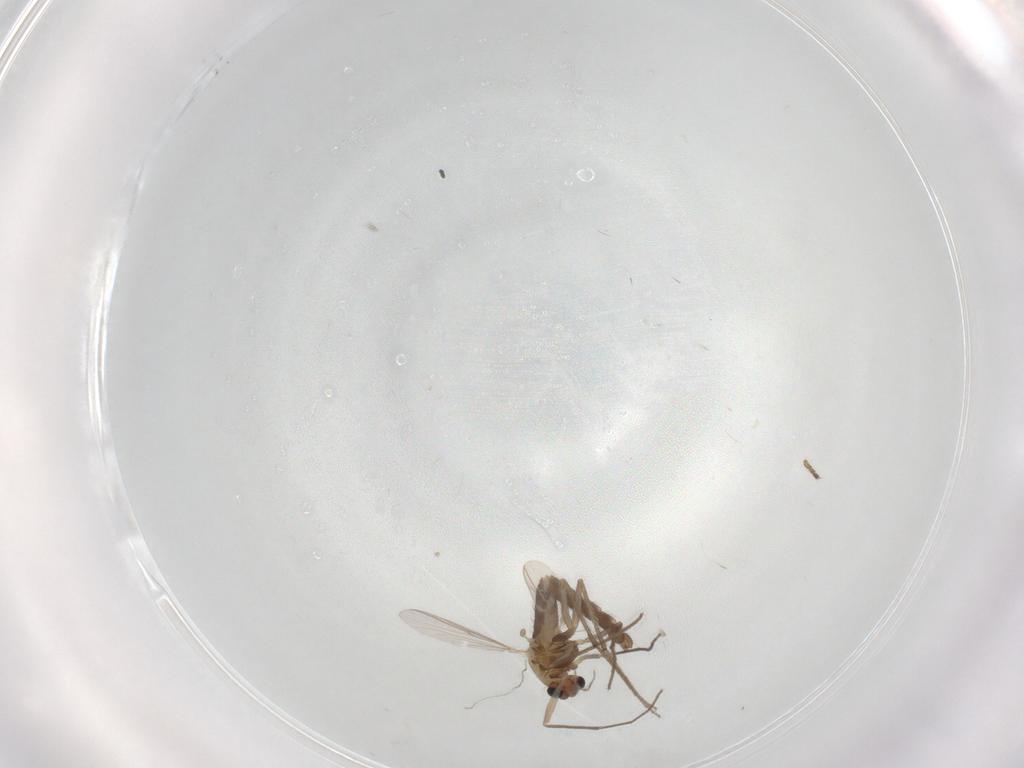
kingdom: Animalia
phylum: Arthropoda
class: Insecta
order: Diptera
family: Chironomidae
